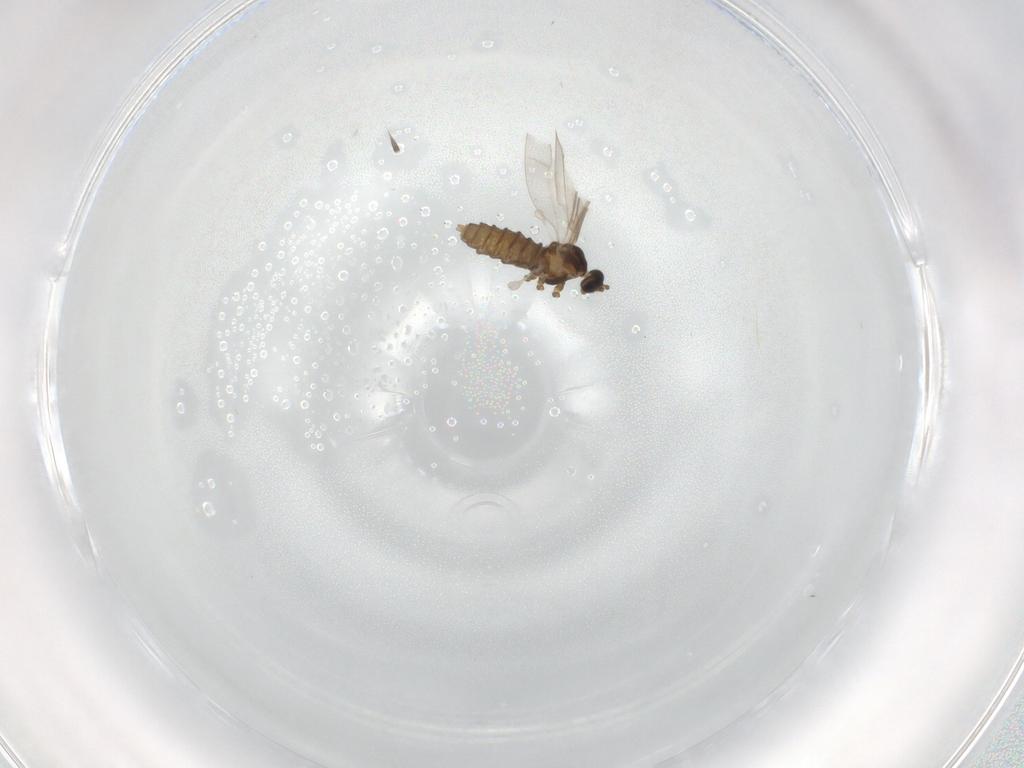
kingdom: Animalia
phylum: Arthropoda
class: Insecta
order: Diptera
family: Cecidomyiidae
